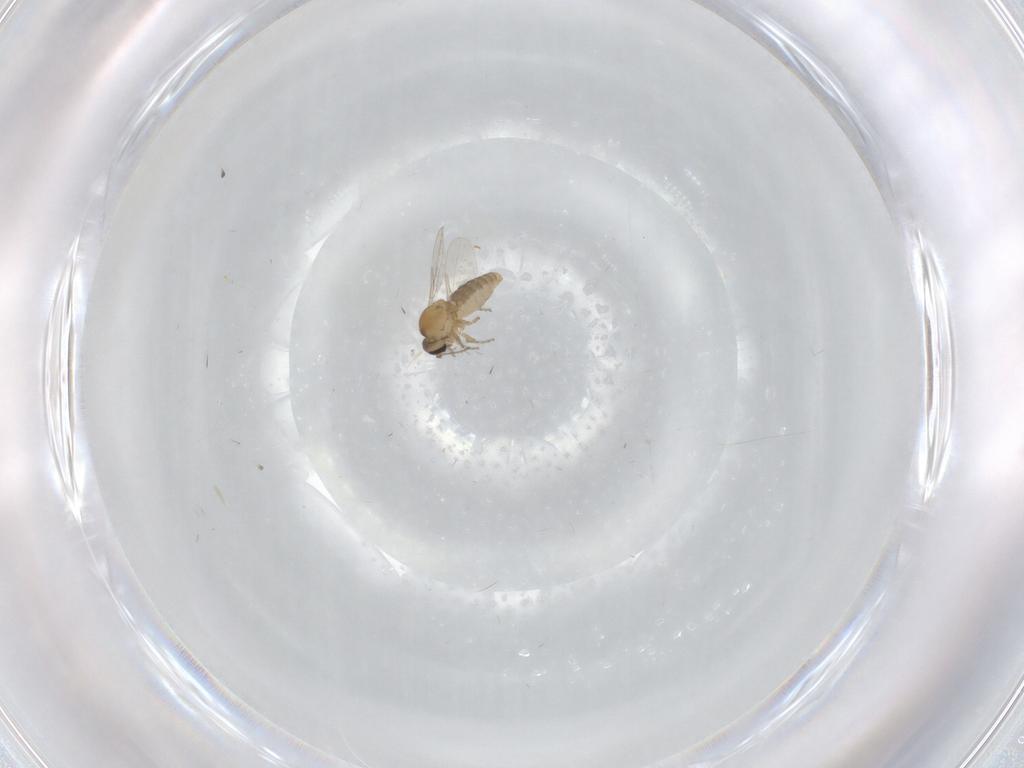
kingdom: Animalia
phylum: Arthropoda
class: Insecta
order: Diptera
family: Ceratopogonidae
